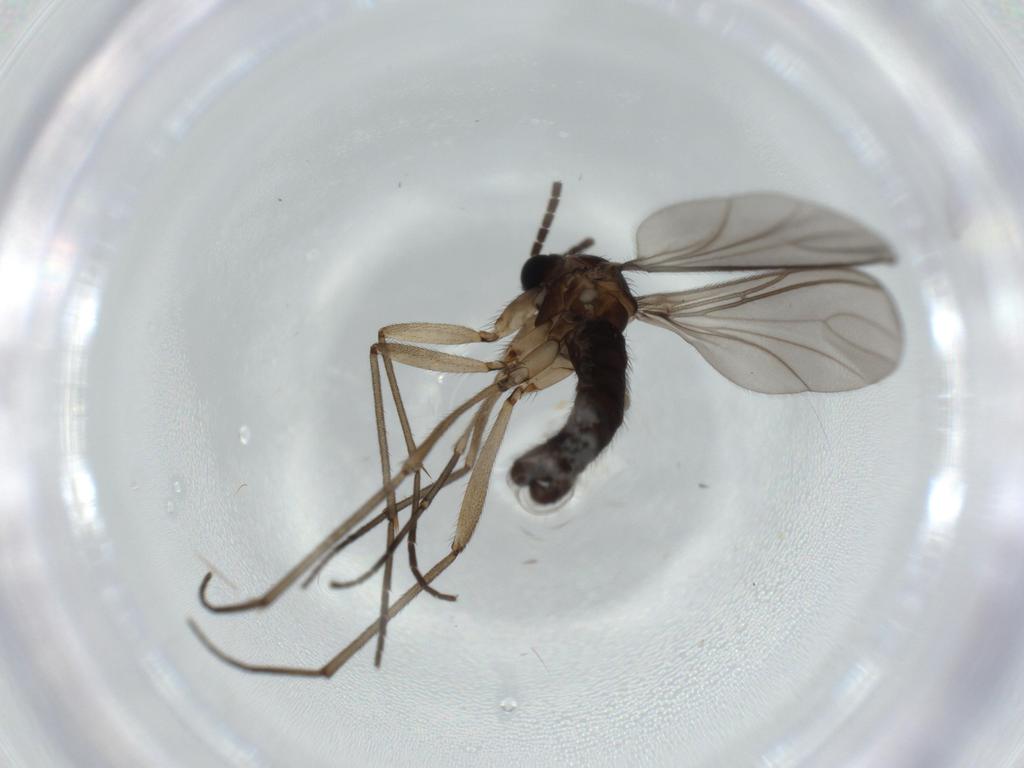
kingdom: Animalia
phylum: Arthropoda
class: Insecta
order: Diptera
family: Sciaridae
